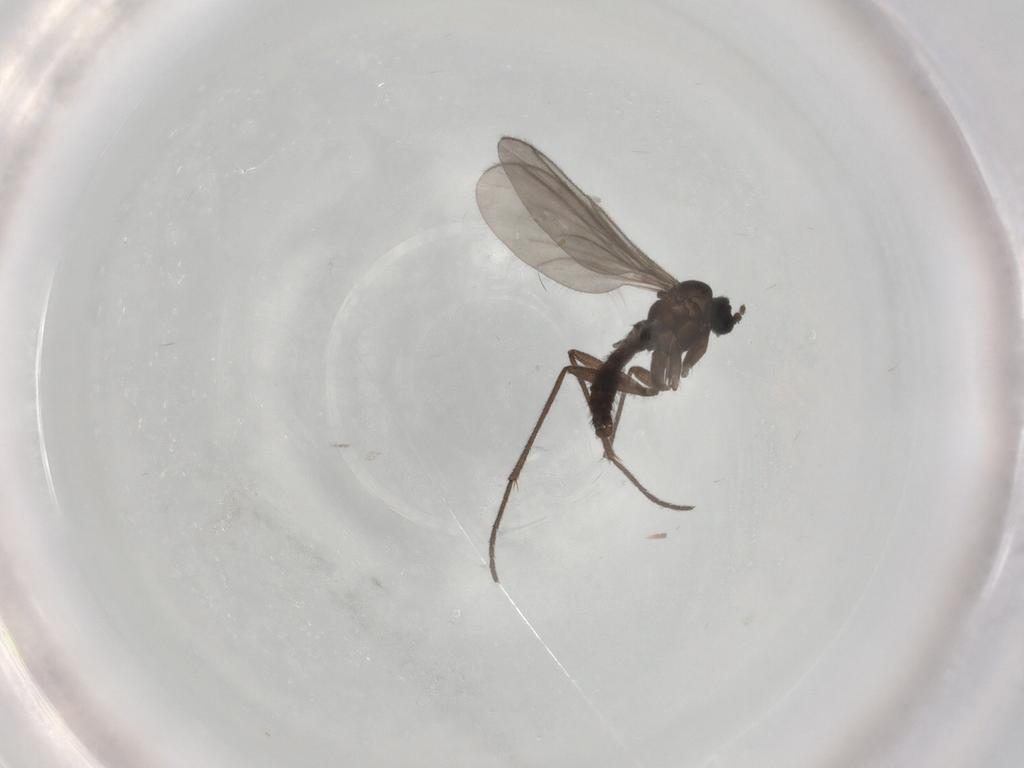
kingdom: Animalia
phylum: Arthropoda
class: Insecta
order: Diptera
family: Sciaridae
